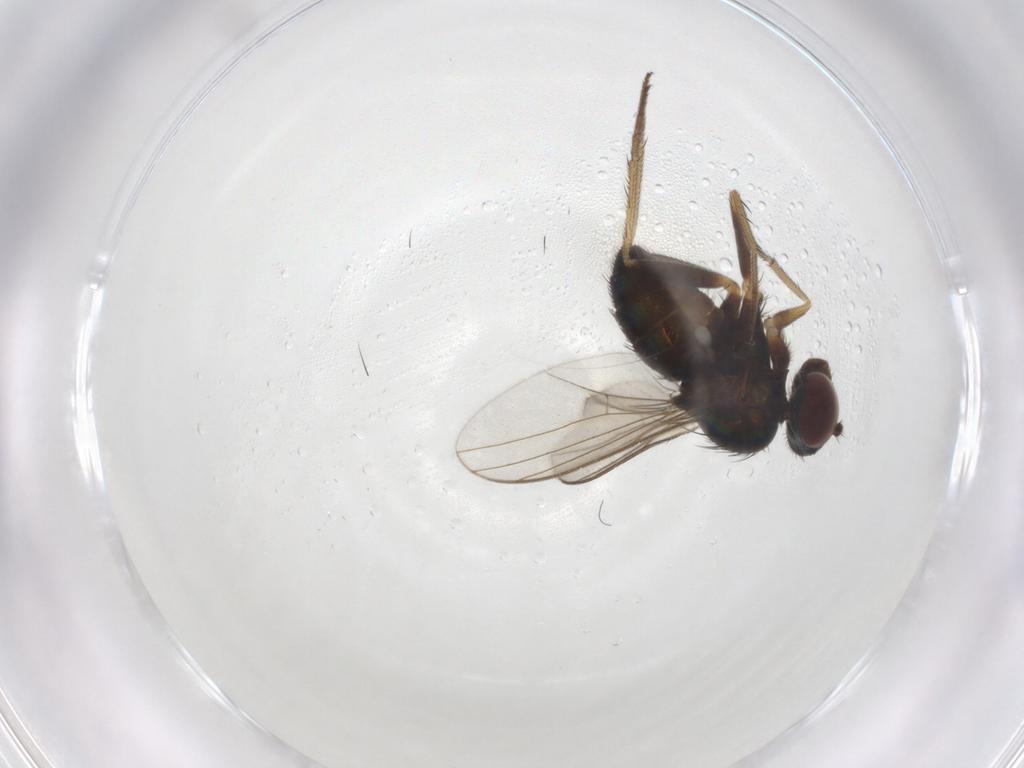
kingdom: Animalia
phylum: Arthropoda
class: Insecta
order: Diptera
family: Dolichopodidae
